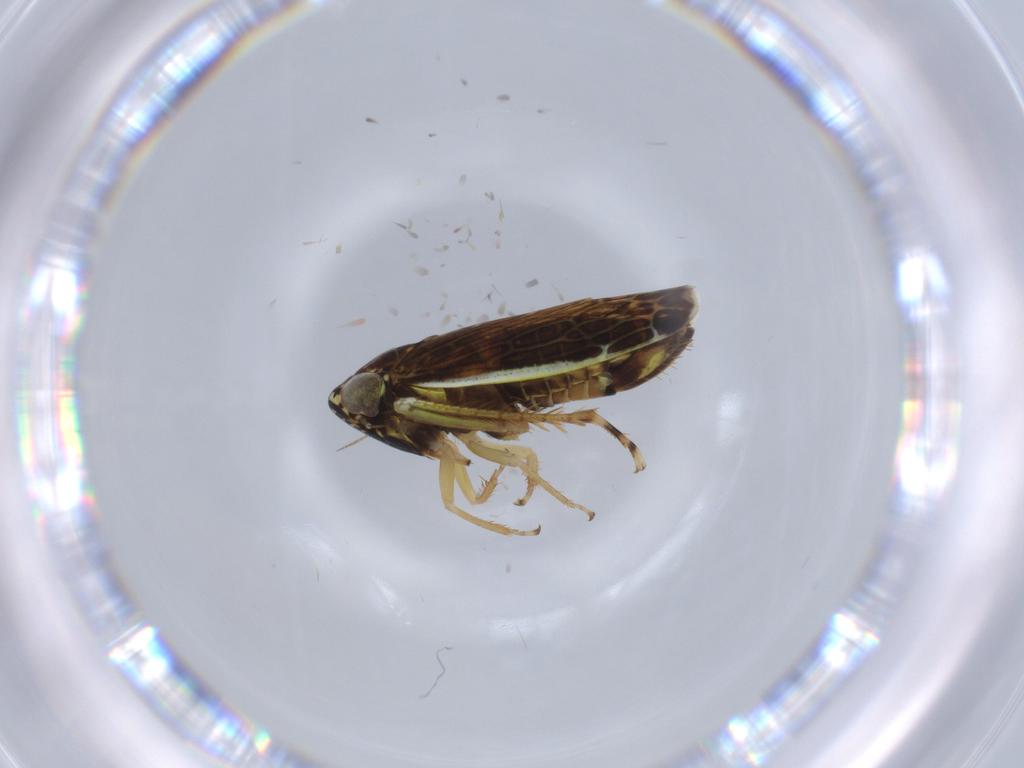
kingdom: Animalia
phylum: Arthropoda
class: Insecta
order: Hemiptera
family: Cicadellidae
